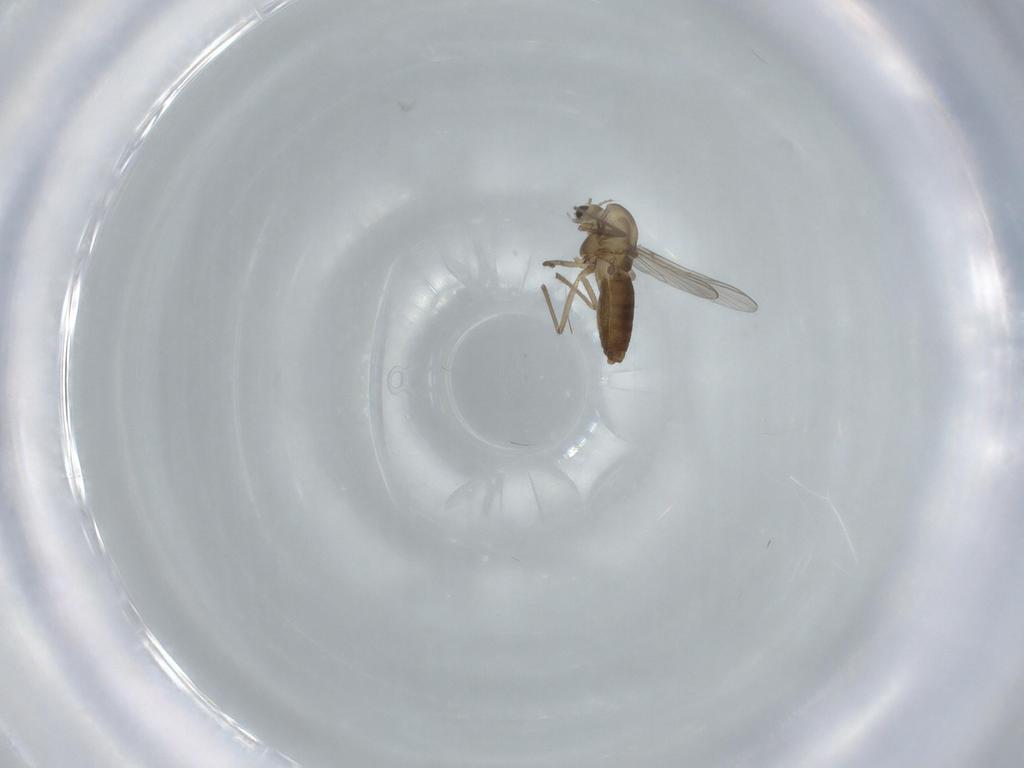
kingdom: Animalia
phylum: Arthropoda
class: Insecta
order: Diptera
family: Chironomidae
